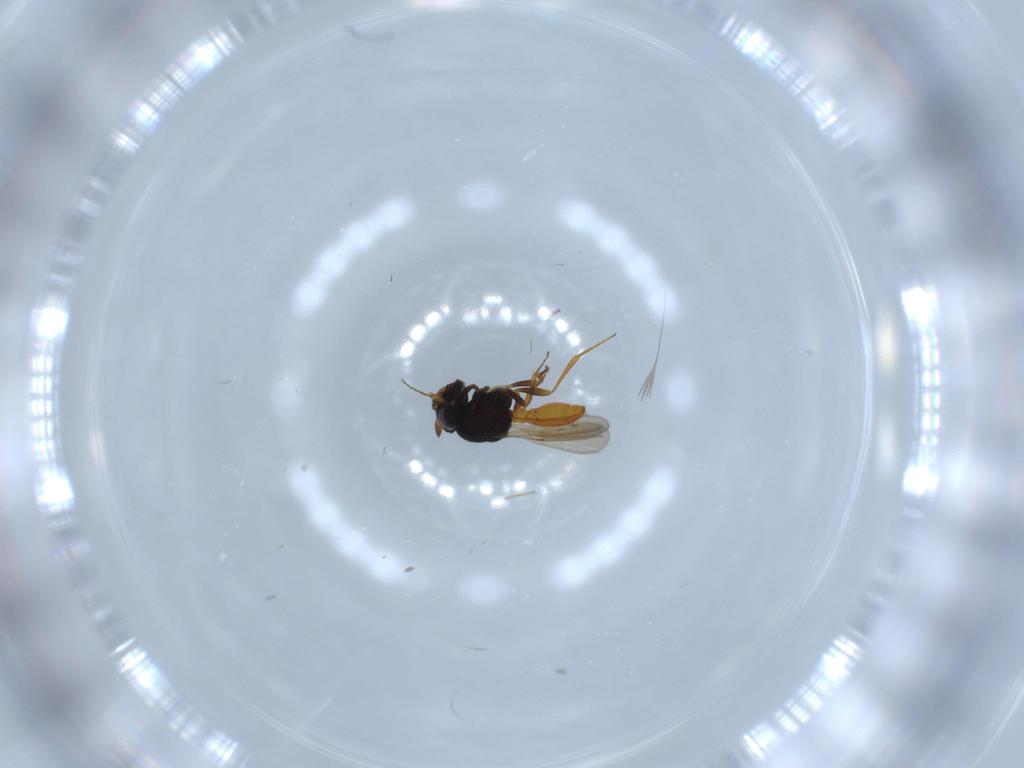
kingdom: Animalia
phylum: Arthropoda
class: Insecta
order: Hymenoptera
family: Scelionidae
